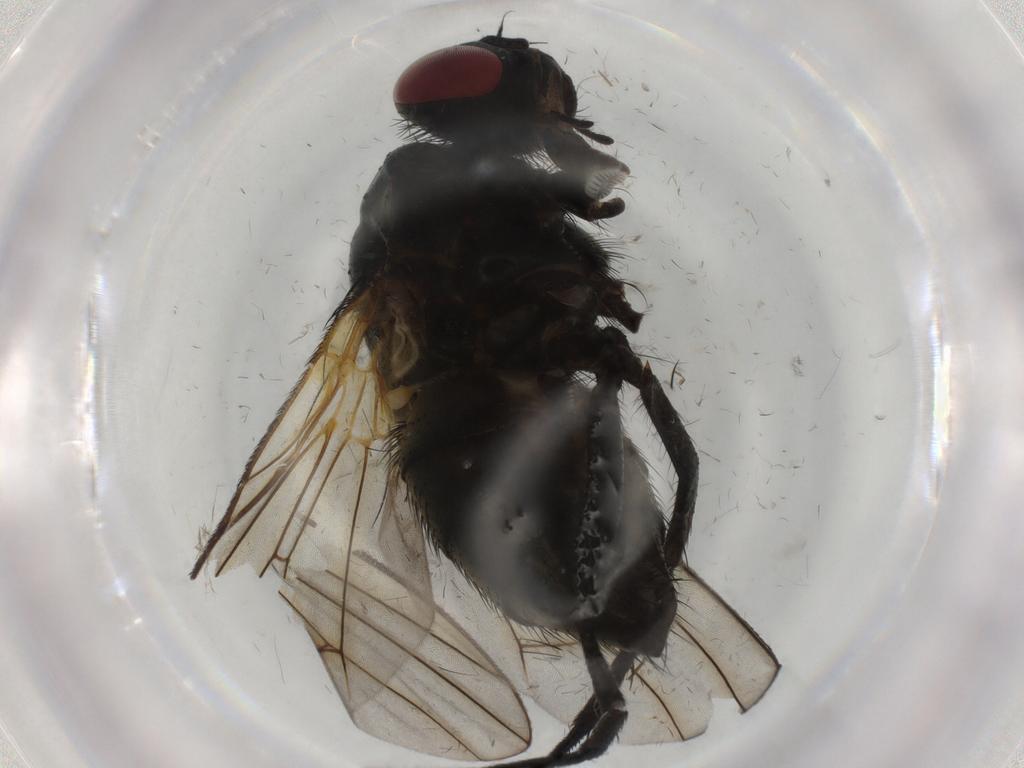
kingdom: Animalia
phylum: Arthropoda
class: Insecta
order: Diptera
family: Muscidae
